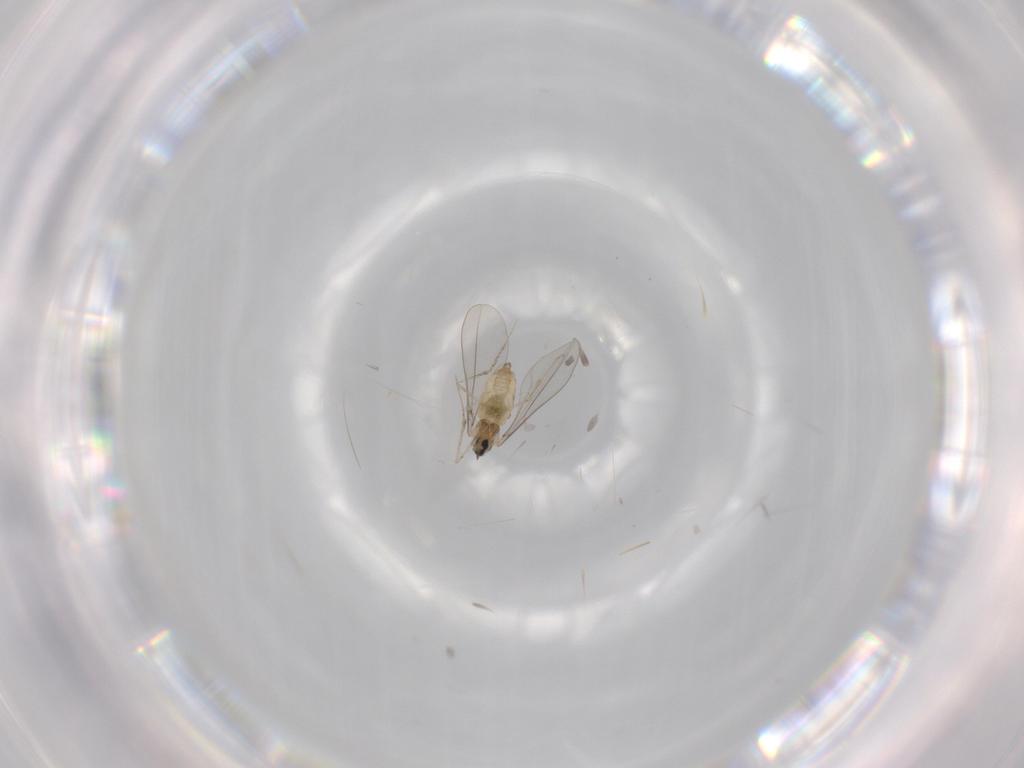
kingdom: Animalia
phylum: Arthropoda
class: Insecta
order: Diptera
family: Cecidomyiidae
